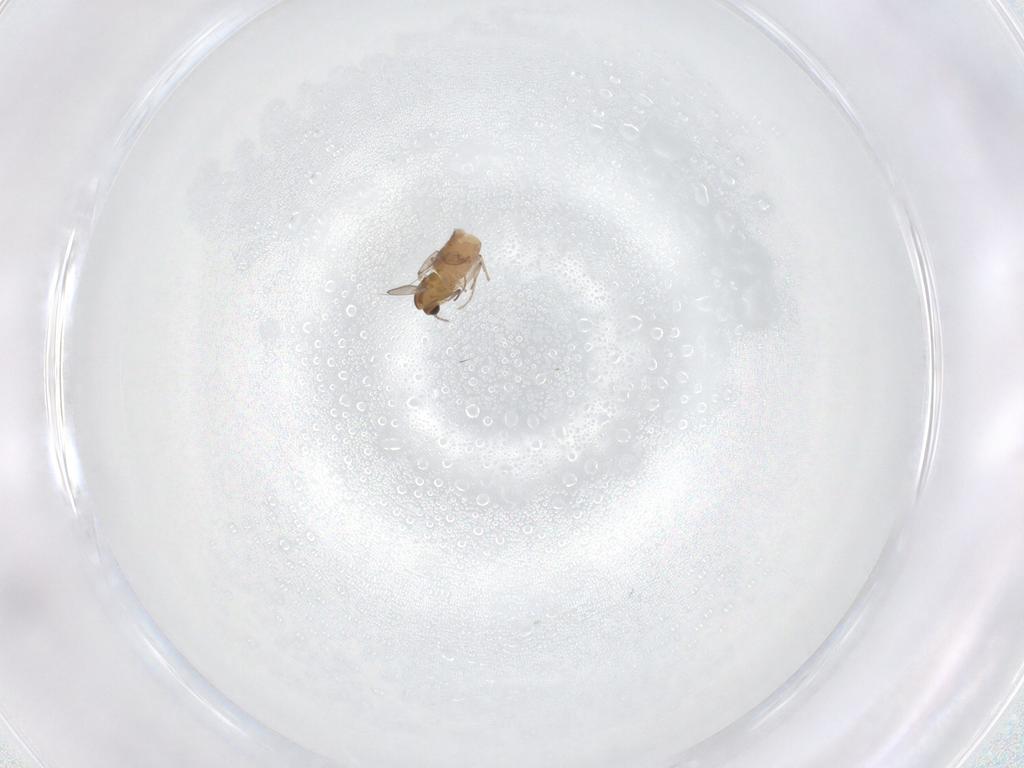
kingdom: Animalia
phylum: Arthropoda
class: Insecta
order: Diptera
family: Chironomidae
